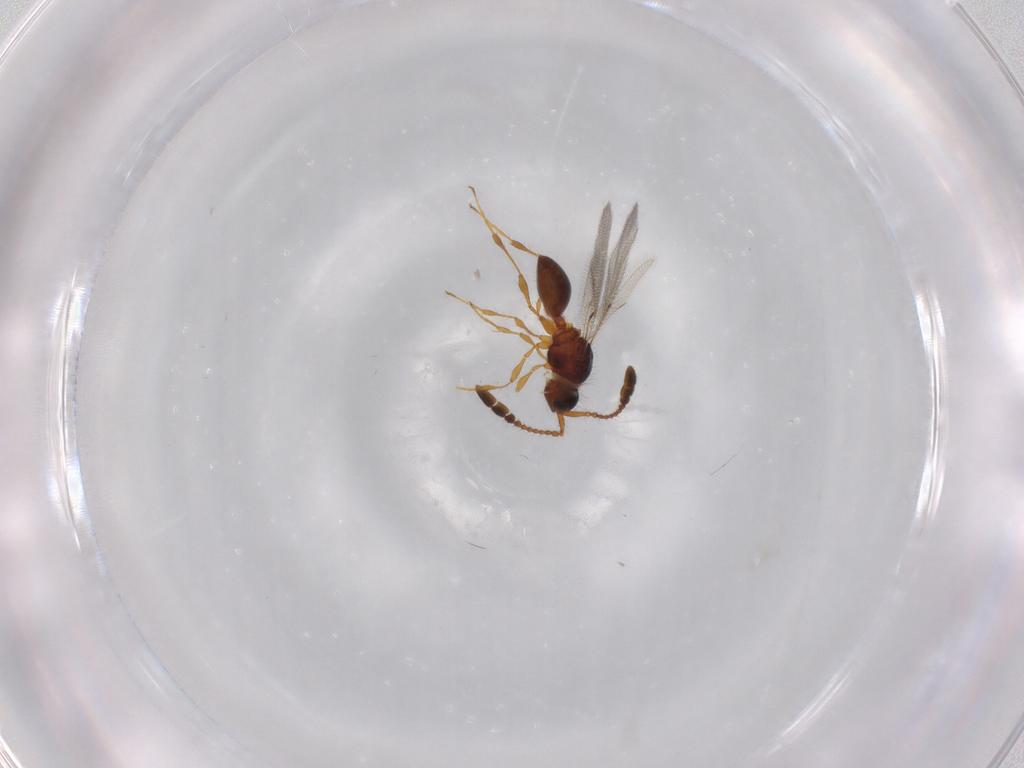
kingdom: Animalia
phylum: Arthropoda
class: Insecta
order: Hymenoptera
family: Diapriidae
